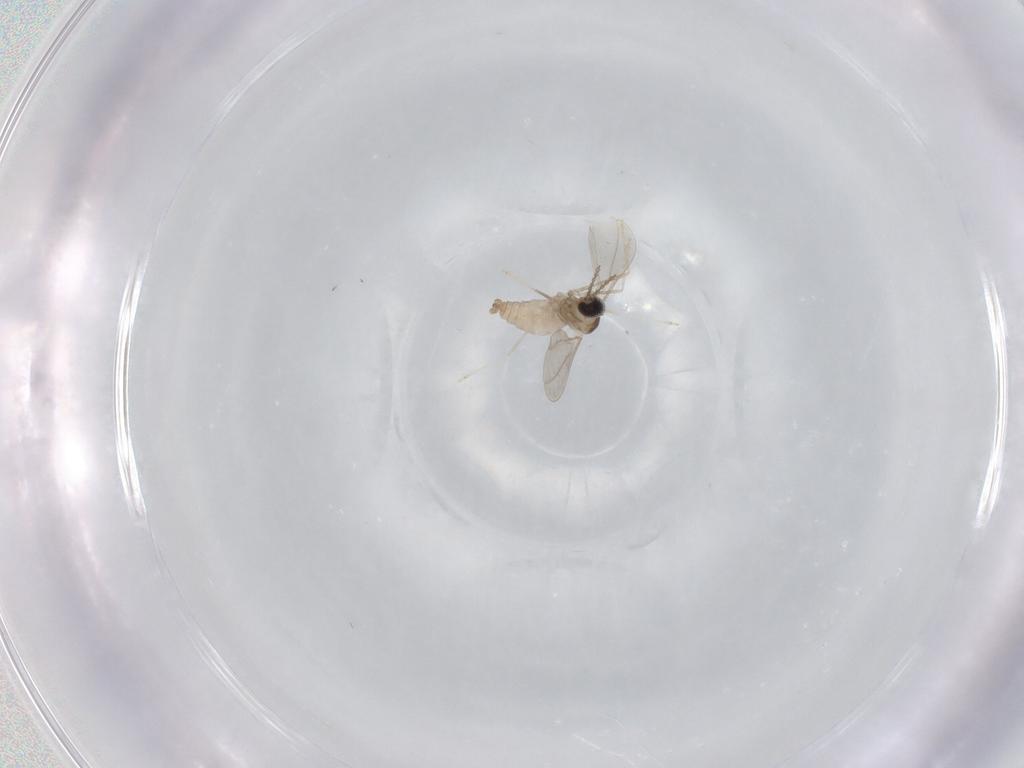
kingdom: Animalia
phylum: Arthropoda
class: Insecta
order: Diptera
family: Cecidomyiidae
